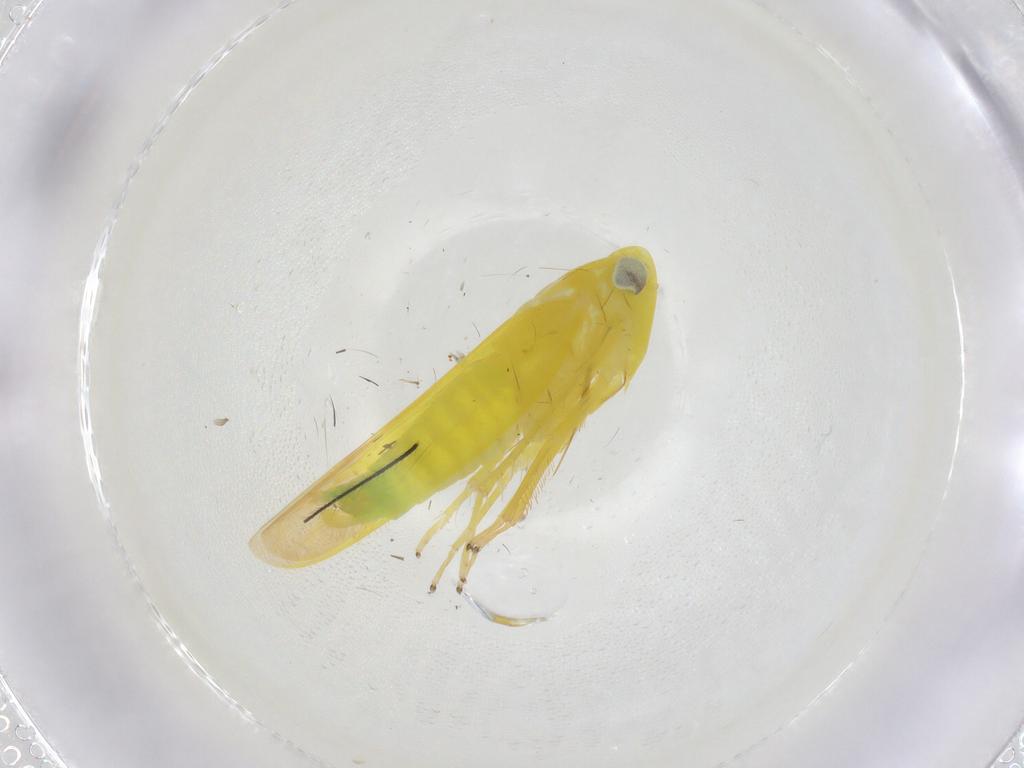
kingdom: Animalia
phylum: Arthropoda
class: Insecta
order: Hemiptera
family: Cicadellidae
